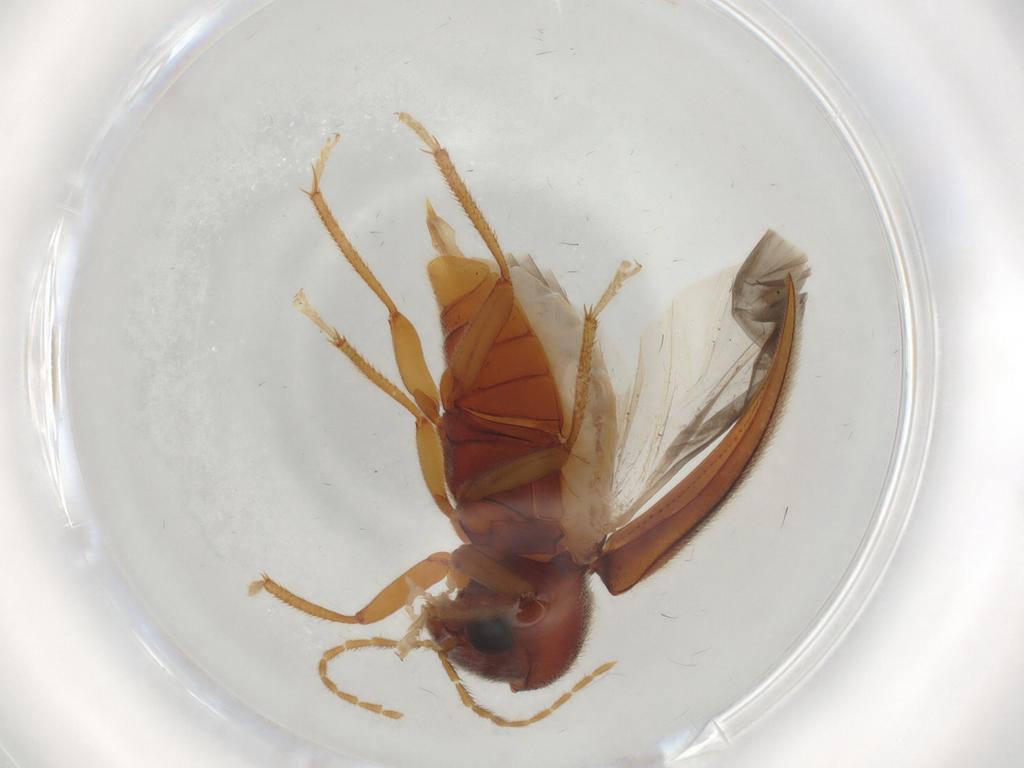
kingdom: Animalia
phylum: Arthropoda
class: Insecta
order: Coleoptera
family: Ptilodactylidae
